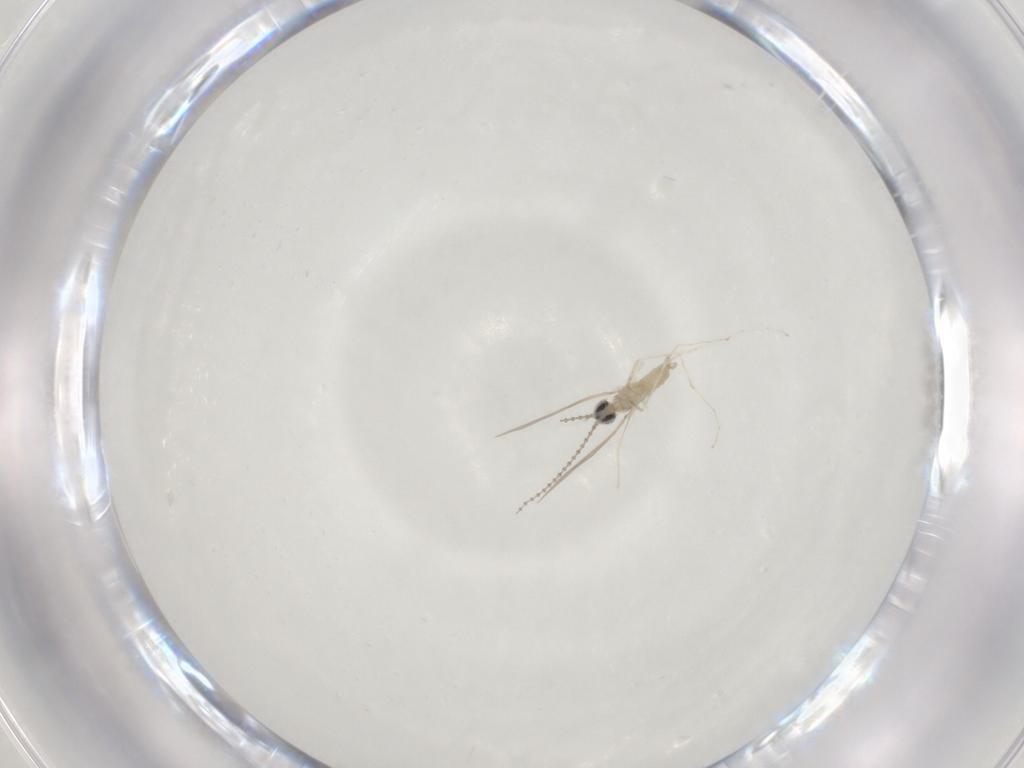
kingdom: Animalia
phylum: Arthropoda
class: Insecta
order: Diptera
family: Cecidomyiidae
